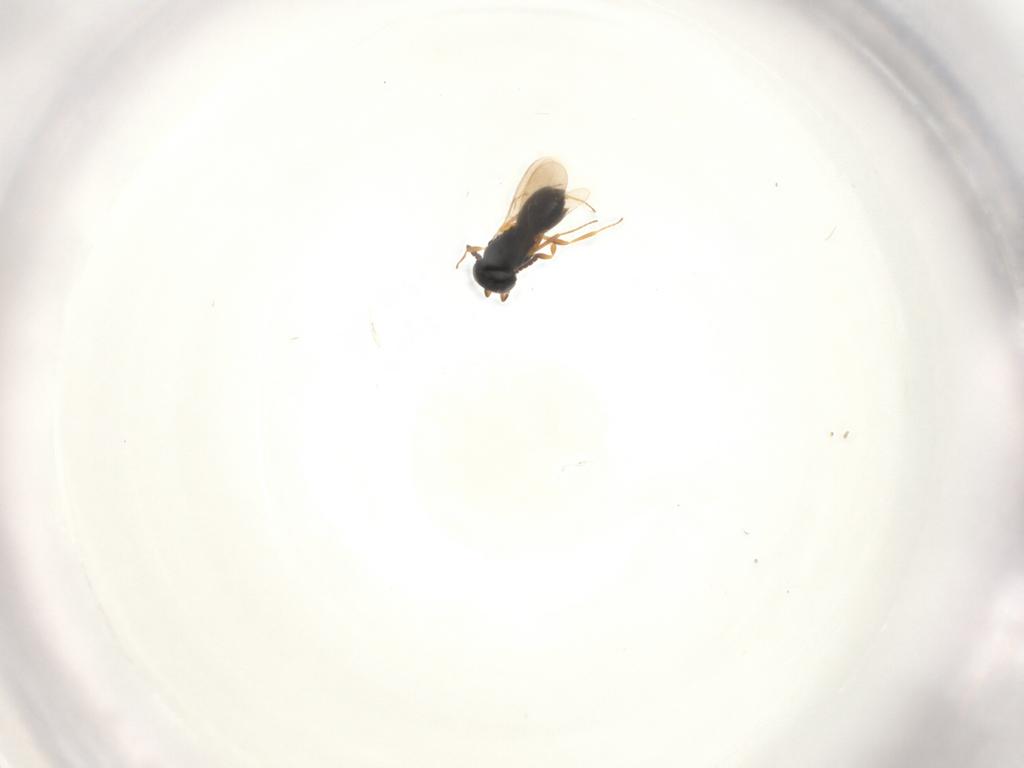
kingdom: Animalia
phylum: Arthropoda
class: Insecta
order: Hymenoptera
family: Scelionidae
